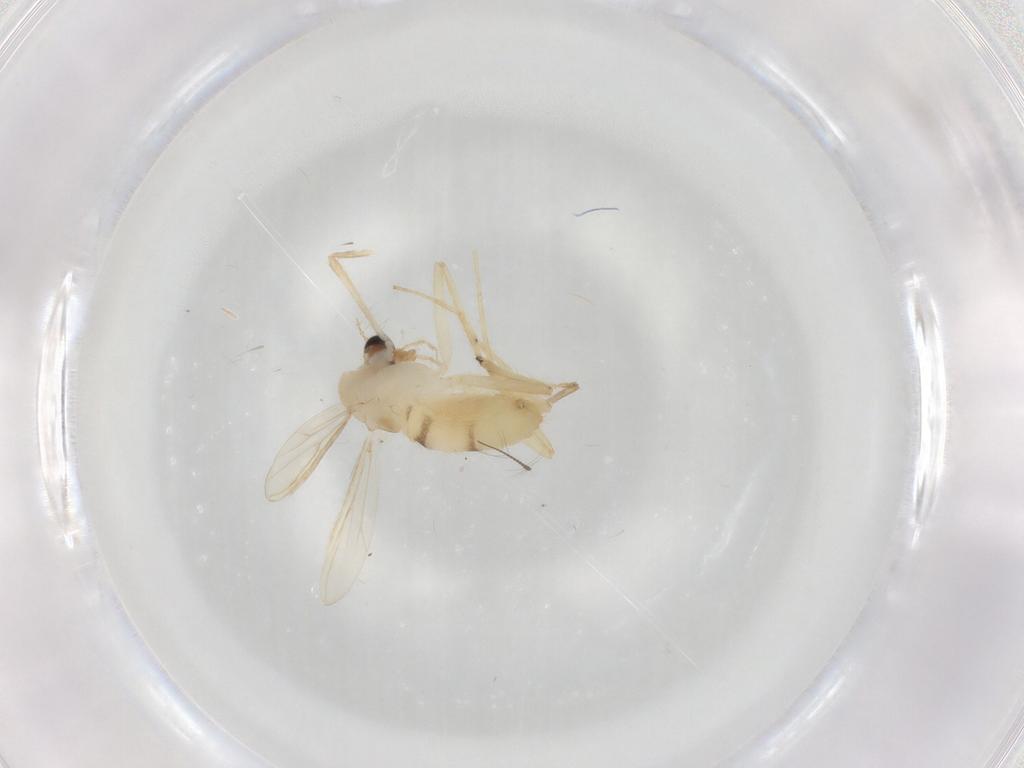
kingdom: Animalia
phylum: Arthropoda
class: Insecta
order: Diptera
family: Chironomidae
